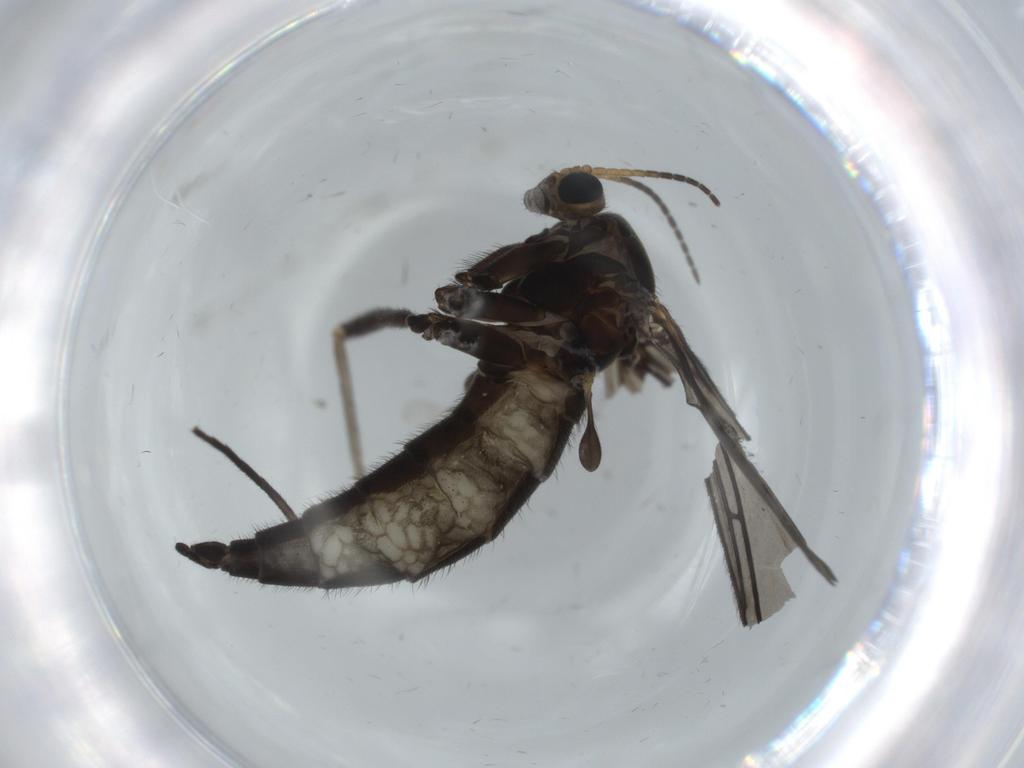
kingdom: Animalia
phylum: Arthropoda
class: Insecta
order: Diptera
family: Sciaridae
